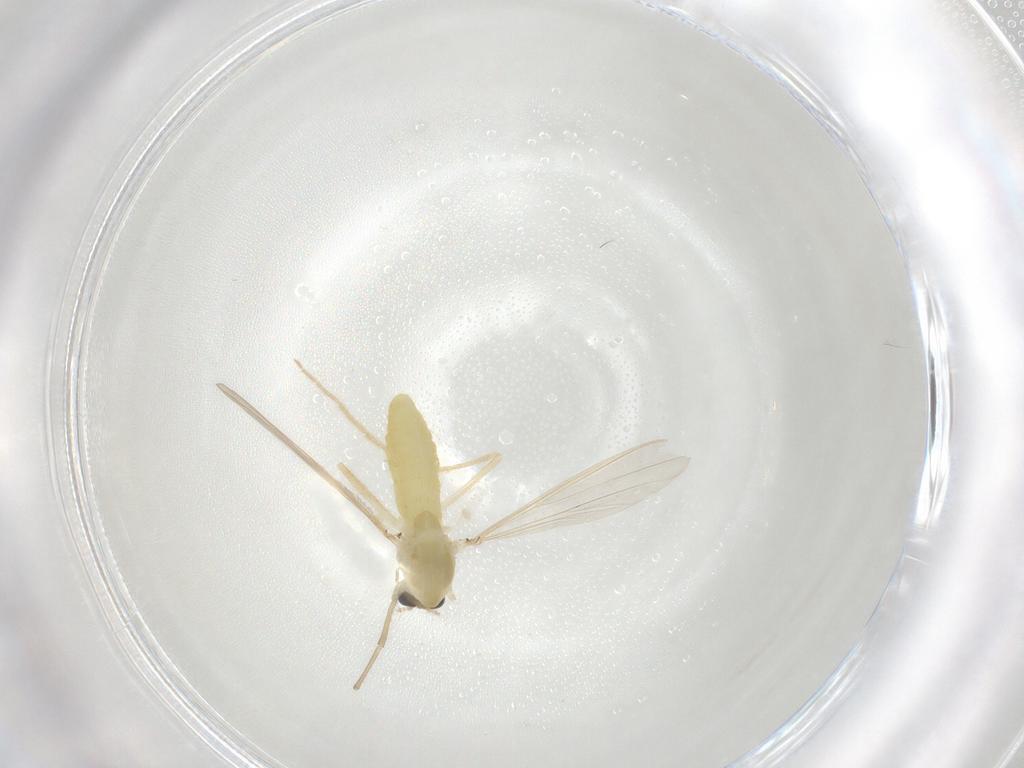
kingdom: Animalia
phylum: Arthropoda
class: Insecta
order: Diptera
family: Chironomidae
